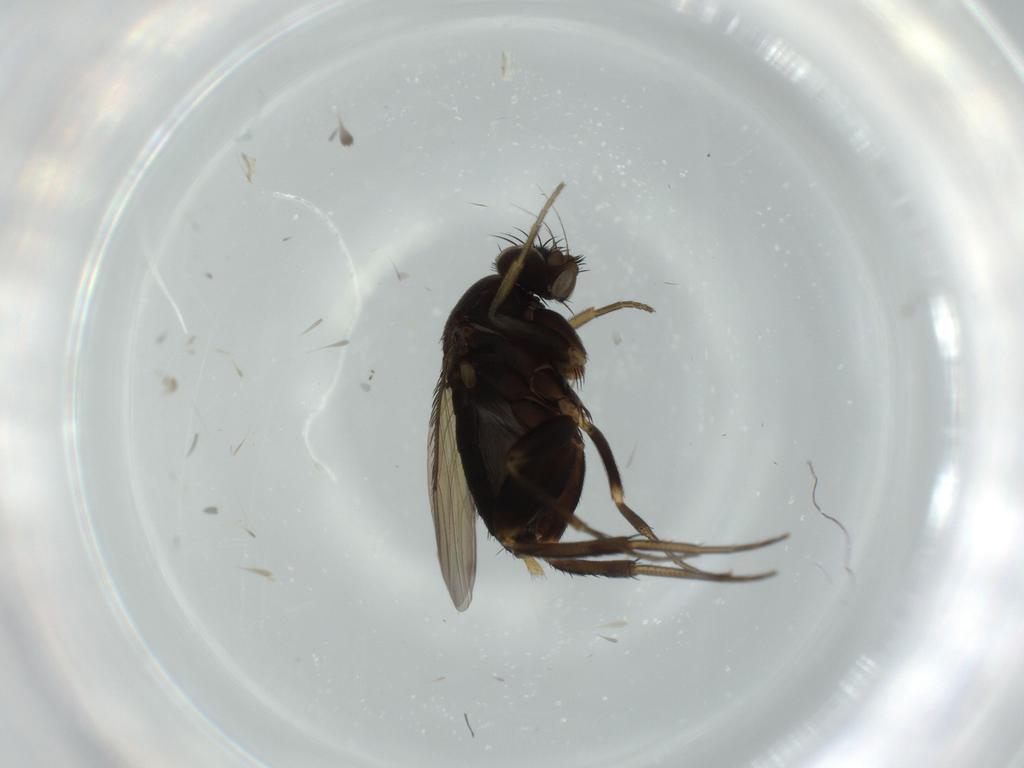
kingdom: Animalia
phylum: Arthropoda
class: Insecta
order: Diptera
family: Phoridae
